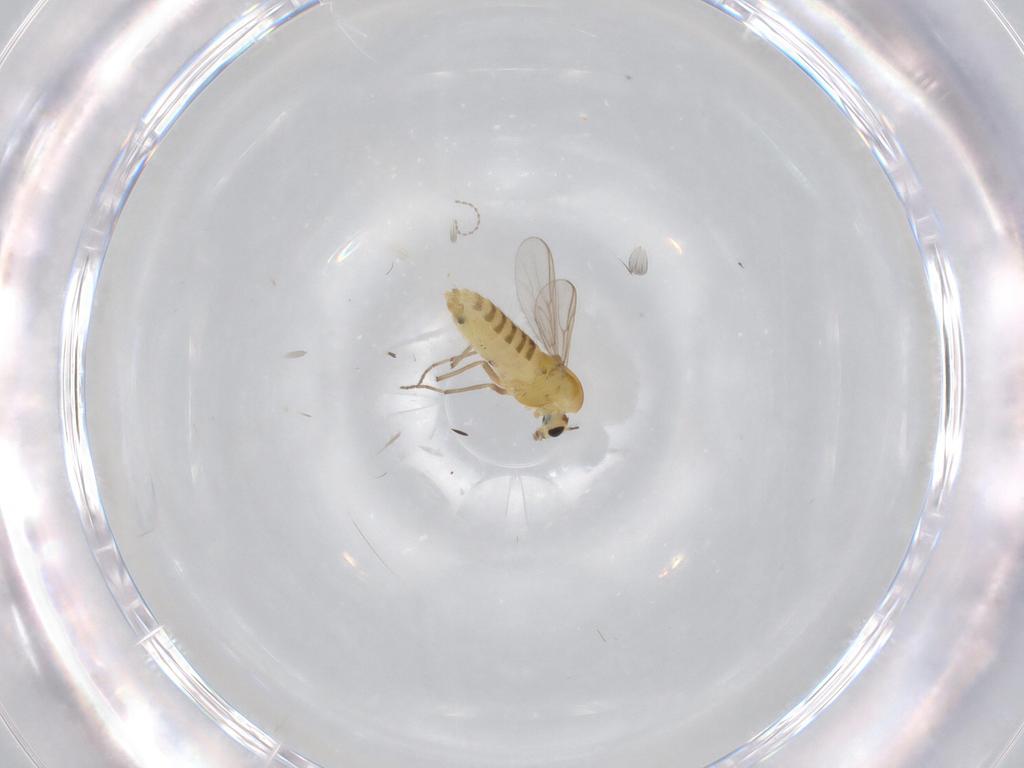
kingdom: Animalia
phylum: Arthropoda
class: Insecta
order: Diptera
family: Chironomidae
